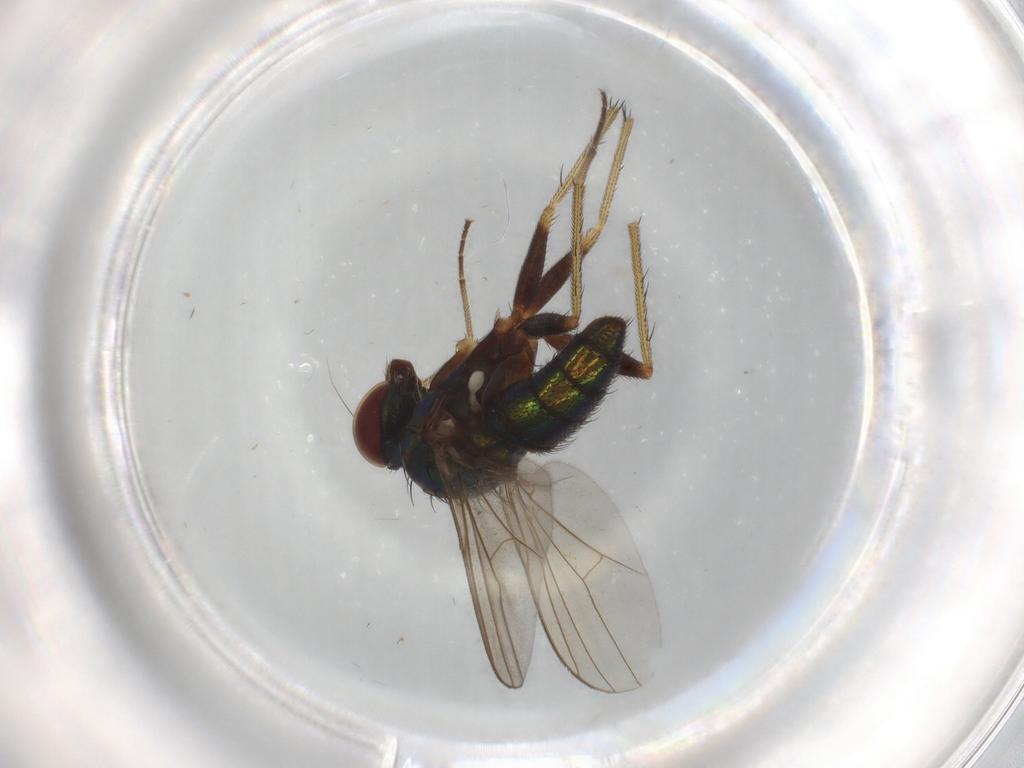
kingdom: Animalia
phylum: Arthropoda
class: Insecta
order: Diptera
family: Dolichopodidae
